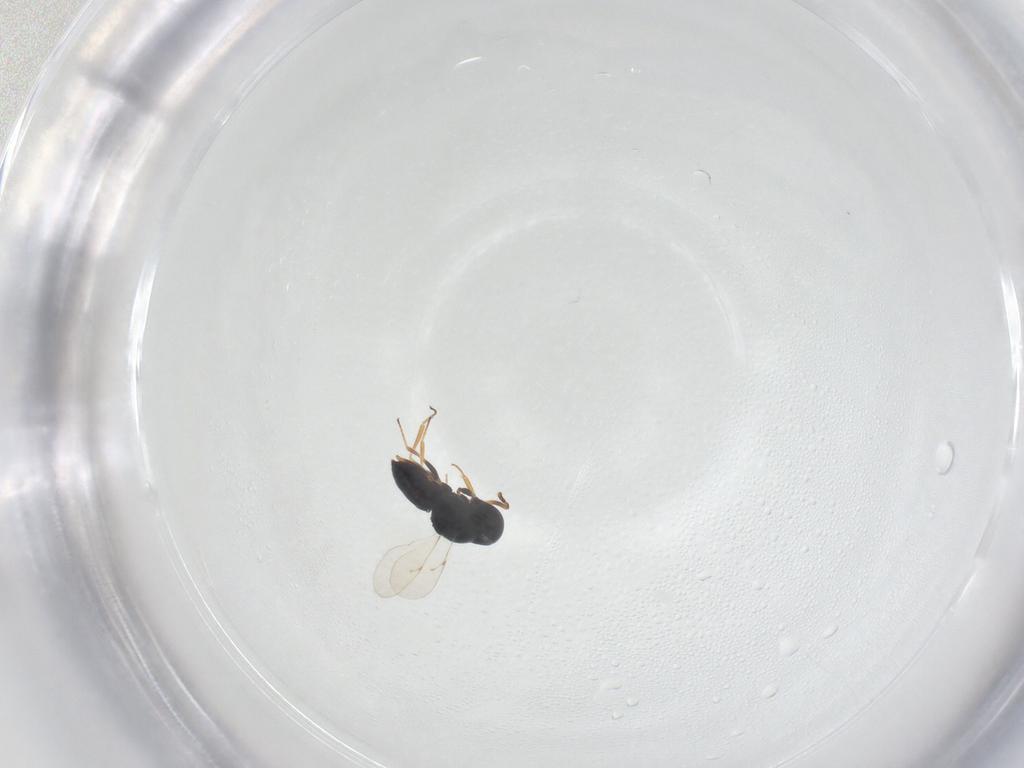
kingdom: Animalia
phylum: Arthropoda
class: Insecta
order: Hymenoptera
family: Scelionidae
